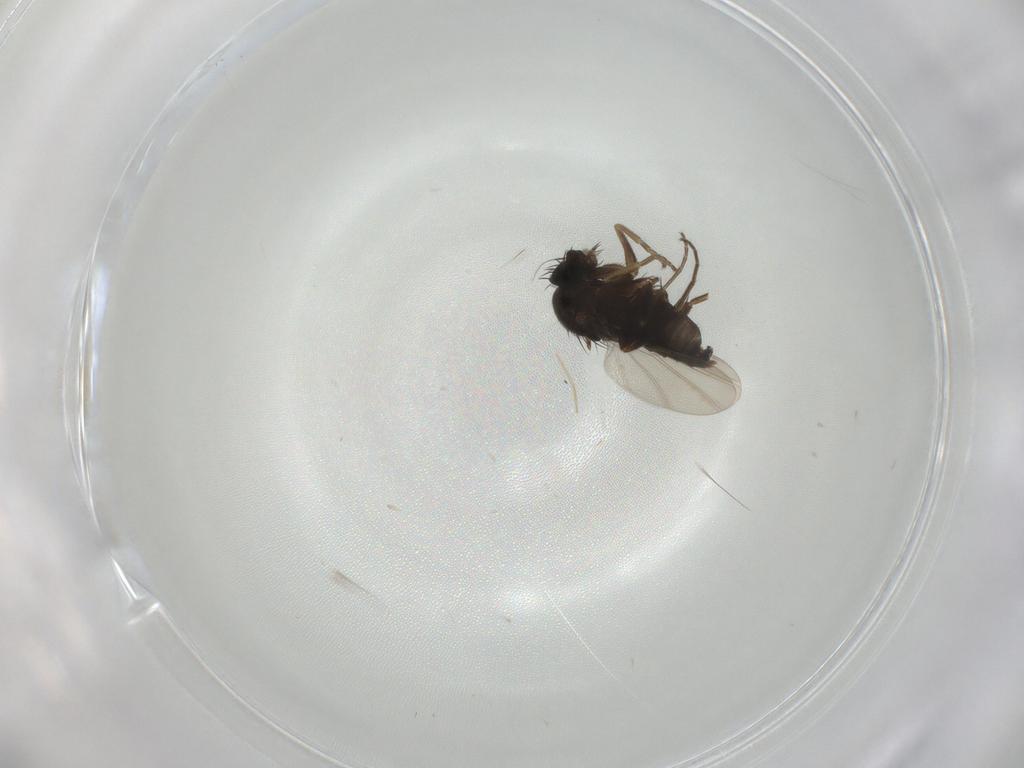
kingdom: Animalia
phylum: Arthropoda
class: Insecta
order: Diptera
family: Phoridae
